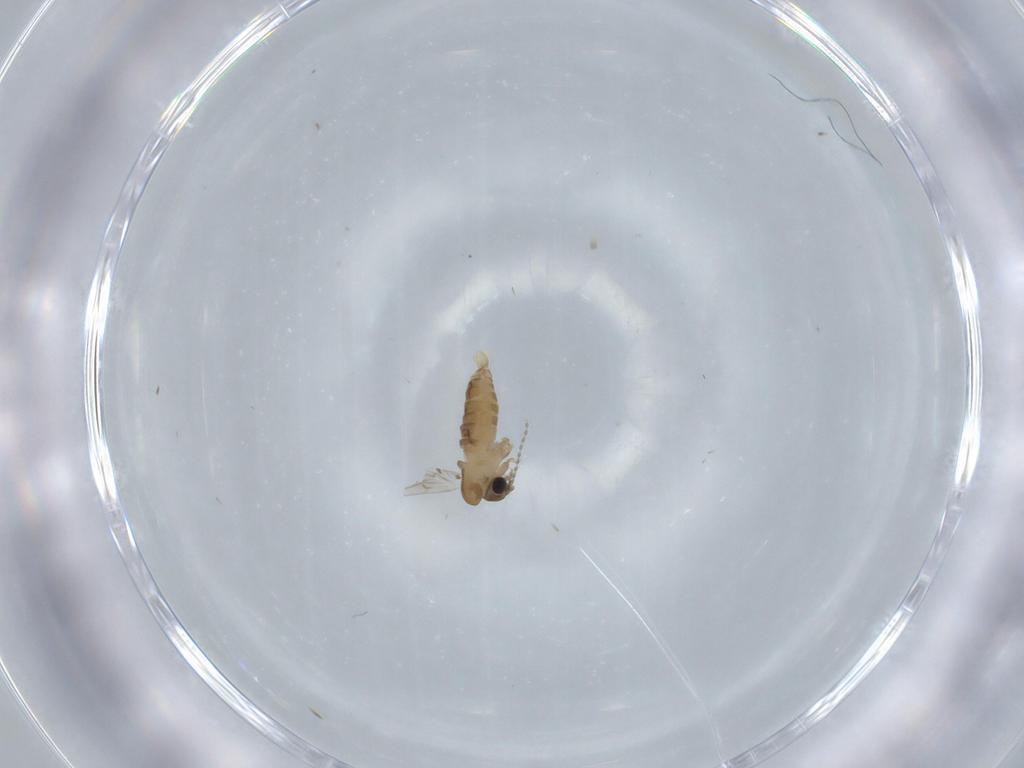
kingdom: Animalia
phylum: Arthropoda
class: Insecta
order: Diptera
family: Psychodidae
